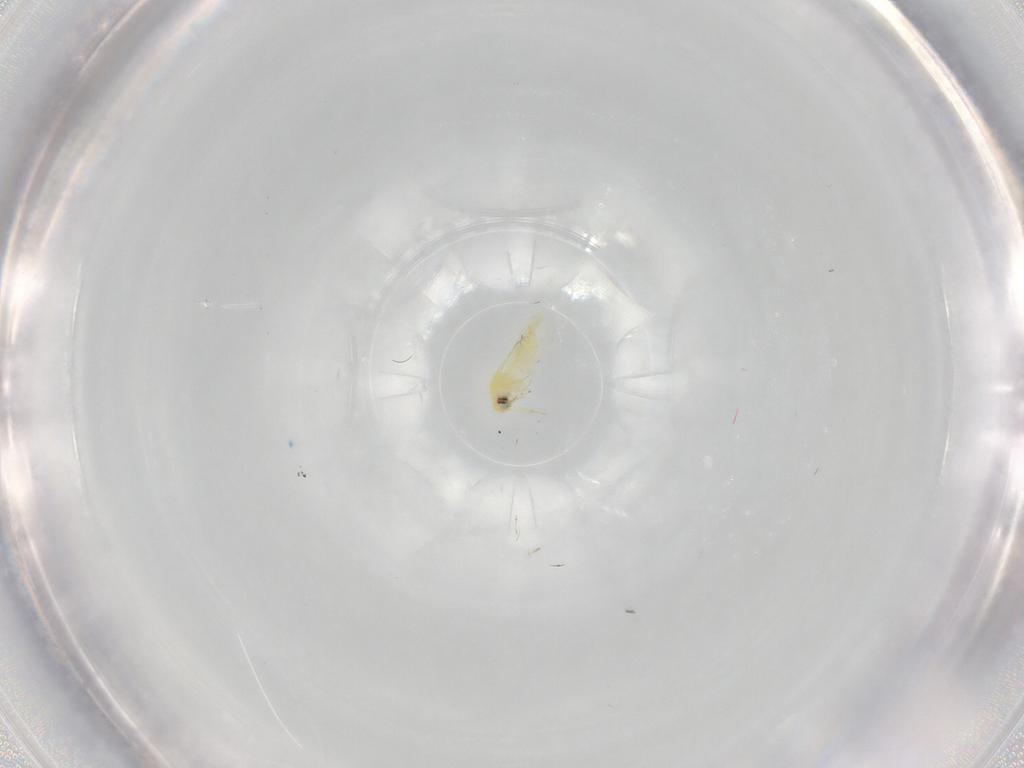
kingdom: Animalia
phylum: Arthropoda
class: Insecta
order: Hemiptera
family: Aleyrodidae
